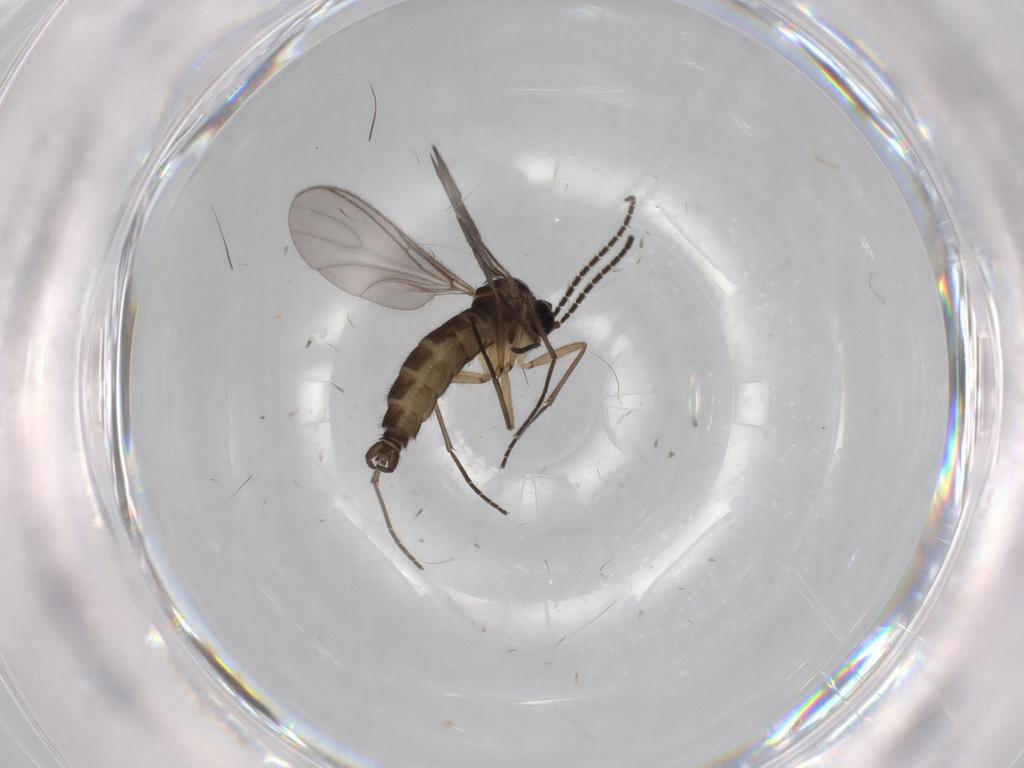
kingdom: Animalia
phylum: Arthropoda
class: Insecta
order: Diptera
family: Sciaridae
